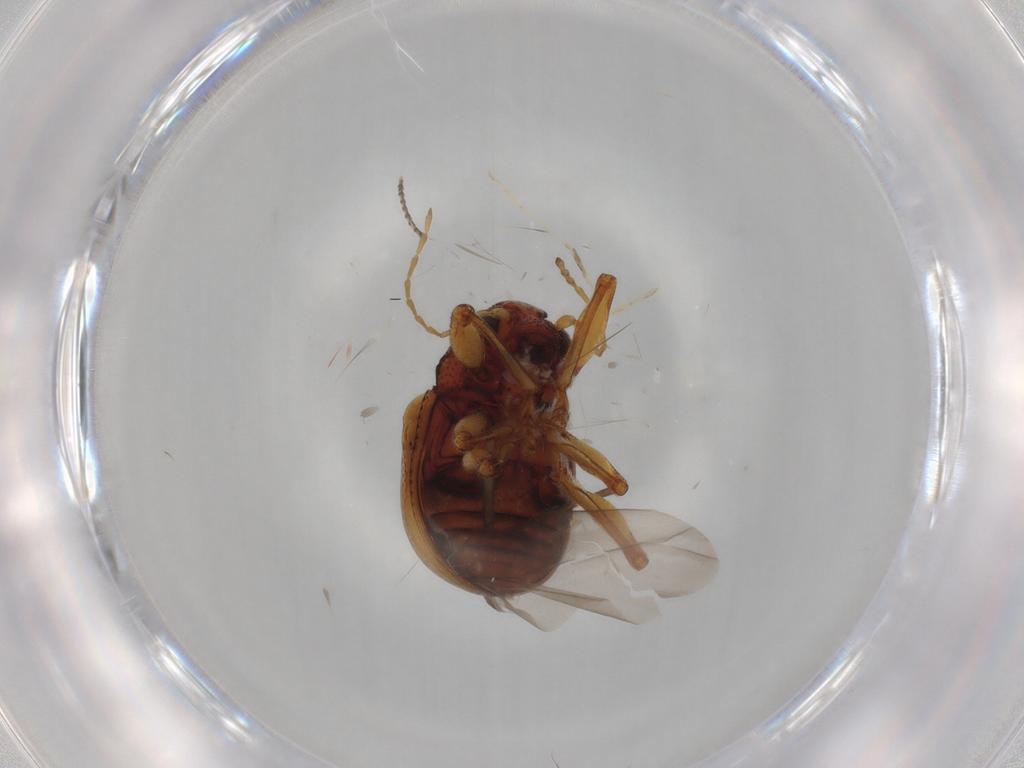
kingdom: Animalia
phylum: Arthropoda
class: Insecta
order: Coleoptera
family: Chrysomelidae
